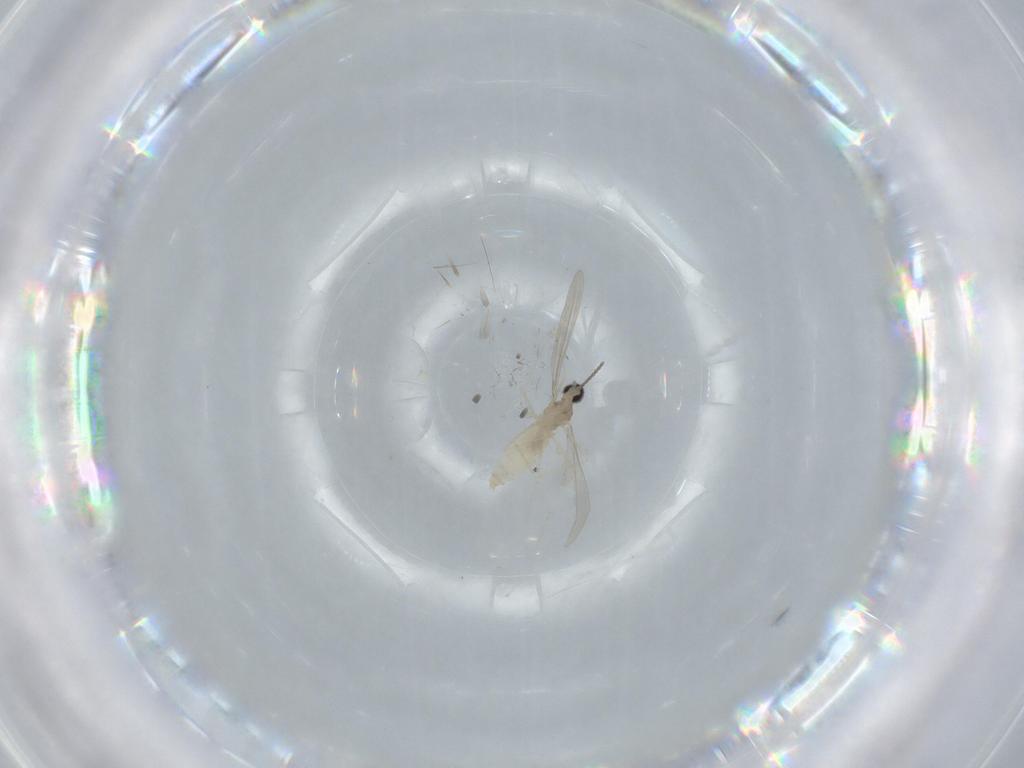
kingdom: Animalia
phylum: Arthropoda
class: Insecta
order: Diptera
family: Cecidomyiidae
